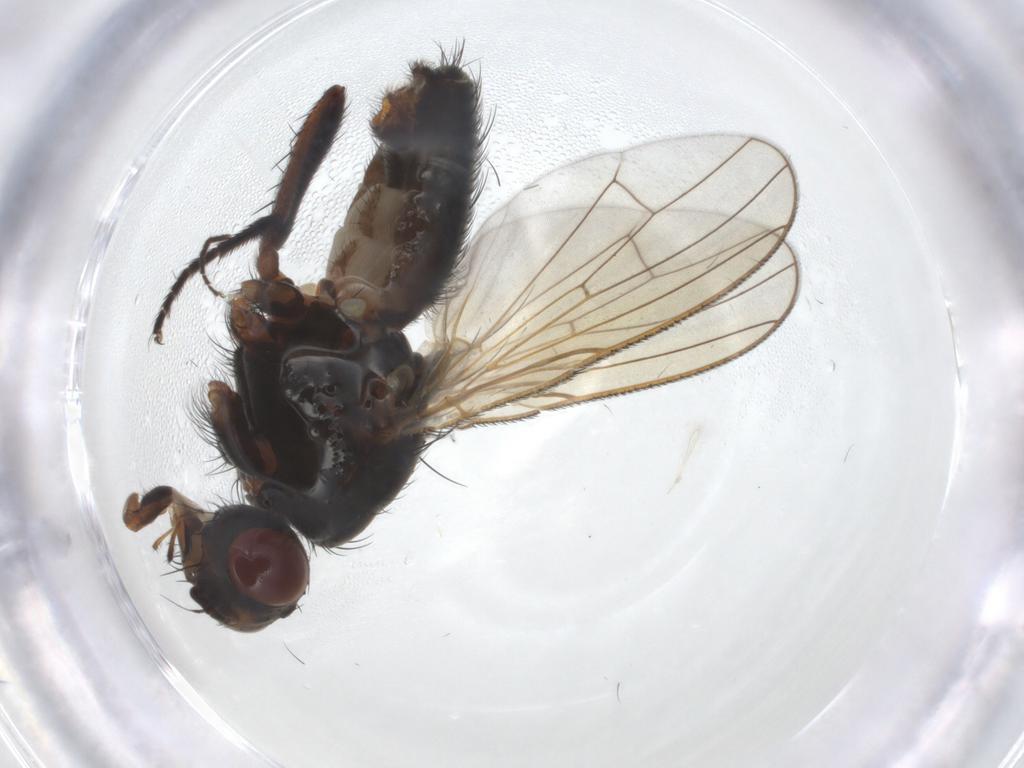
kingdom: Animalia
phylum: Arthropoda
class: Insecta
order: Diptera
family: Anthomyiidae
